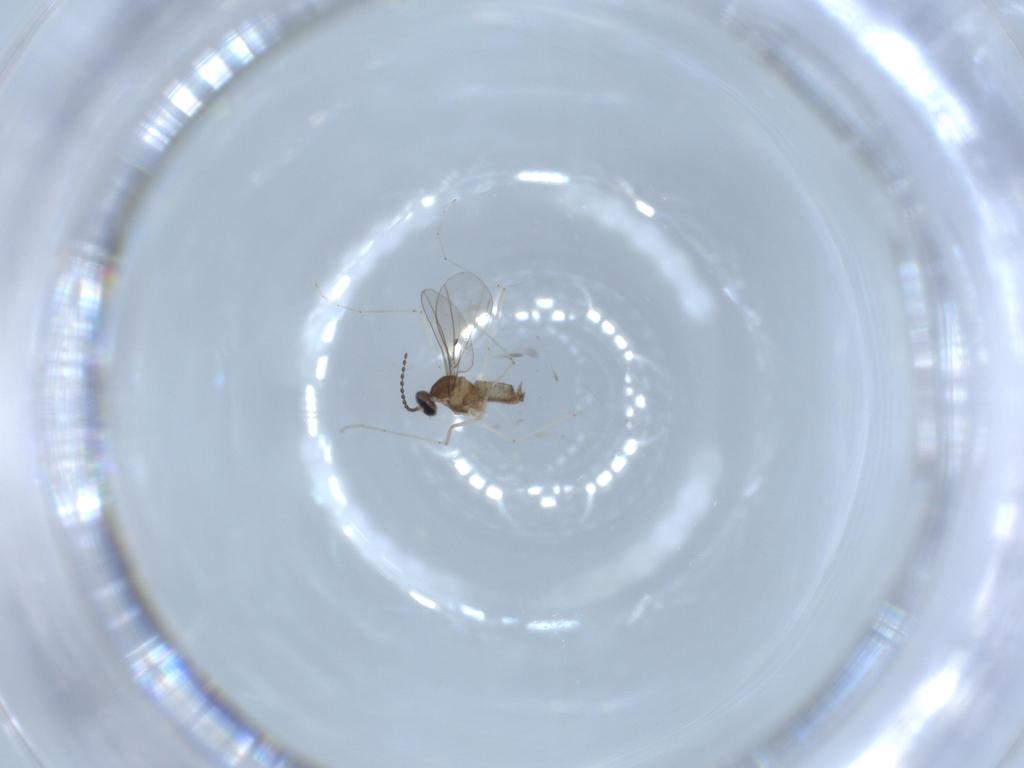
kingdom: Animalia
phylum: Arthropoda
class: Insecta
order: Diptera
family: Cecidomyiidae
